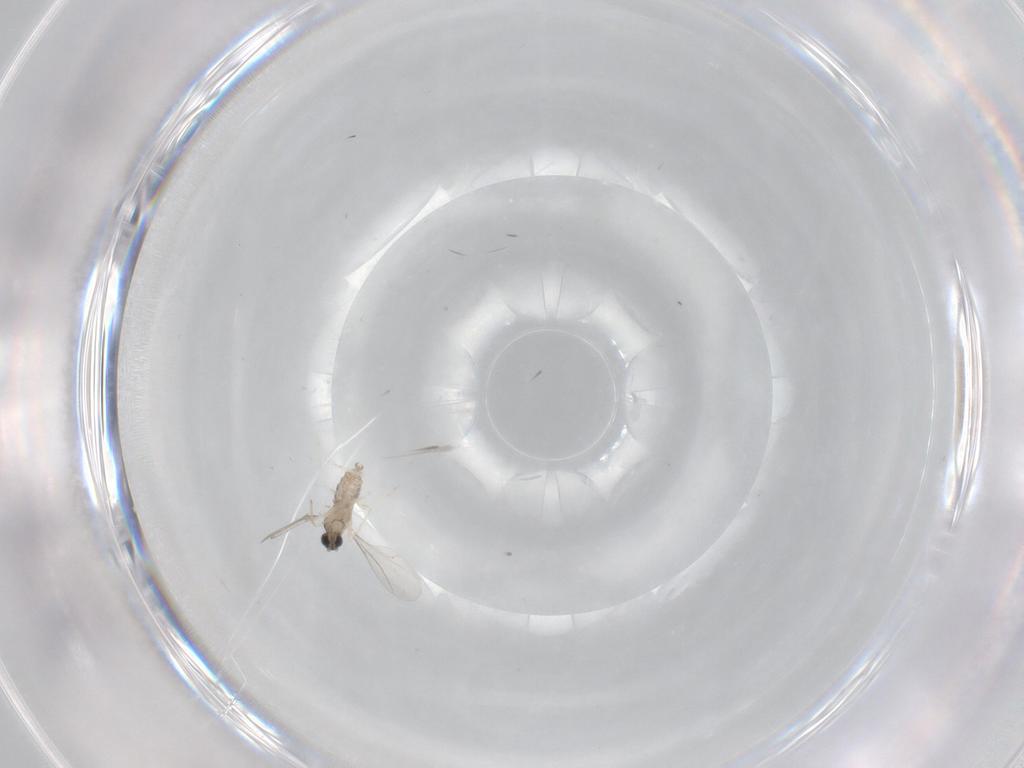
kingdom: Animalia
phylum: Arthropoda
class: Insecta
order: Diptera
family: Cecidomyiidae
